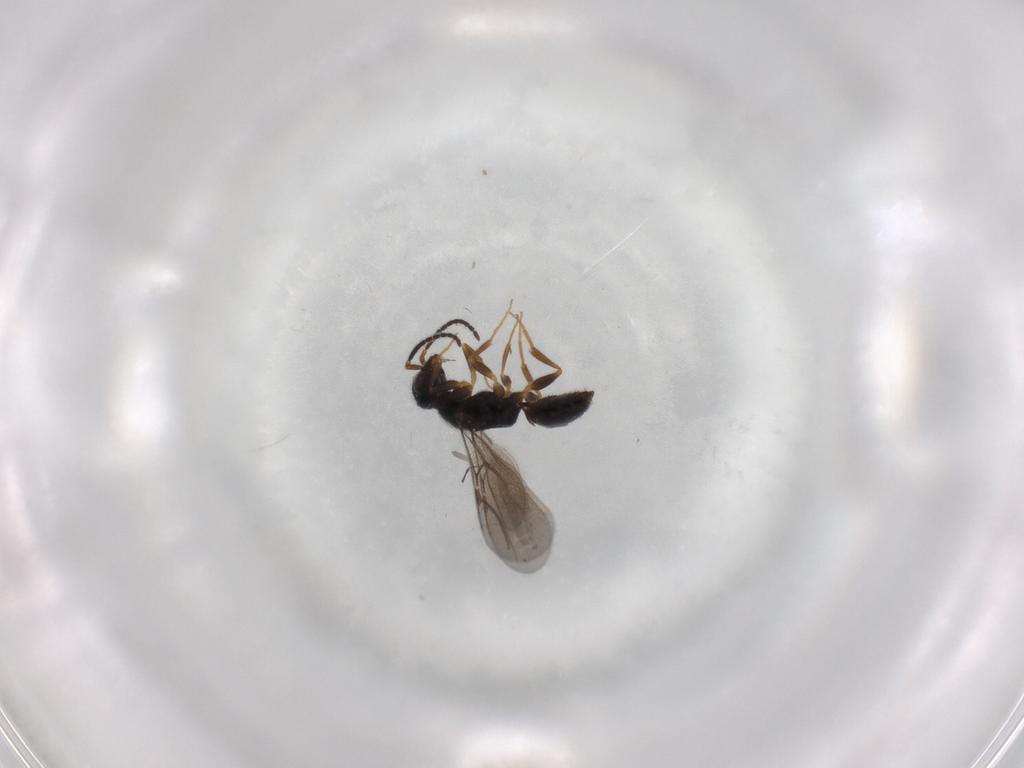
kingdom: Animalia
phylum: Arthropoda
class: Insecta
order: Hymenoptera
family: Bethylidae
